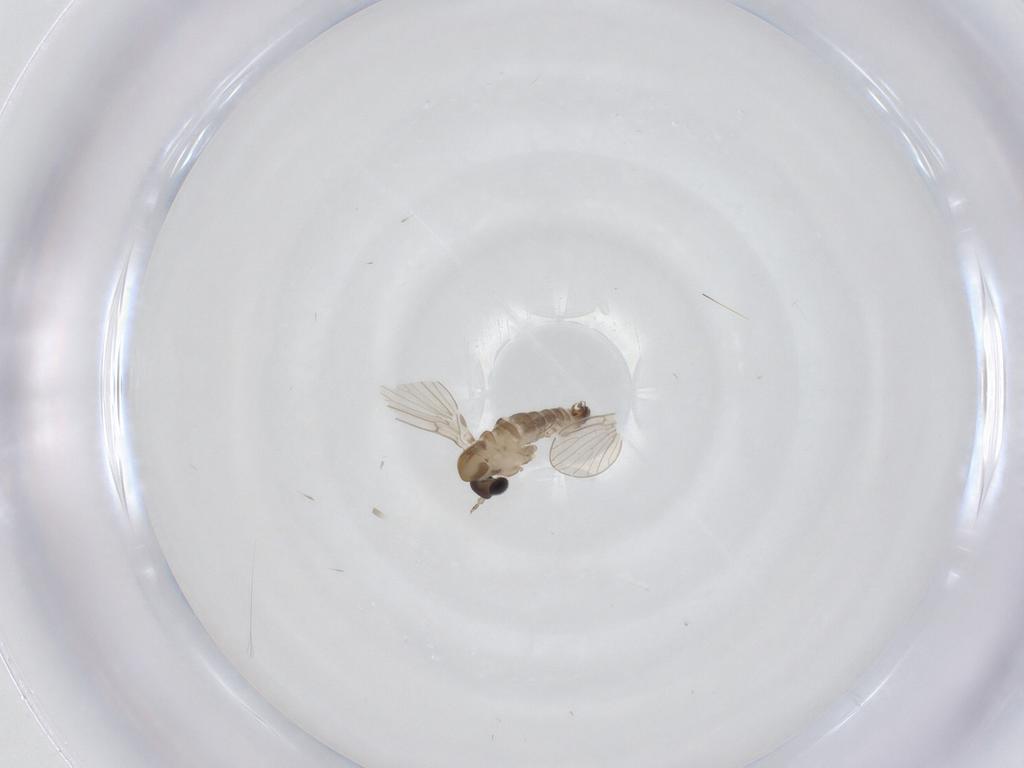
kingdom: Animalia
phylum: Arthropoda
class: Insecta
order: Diptera
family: Psychodidae
